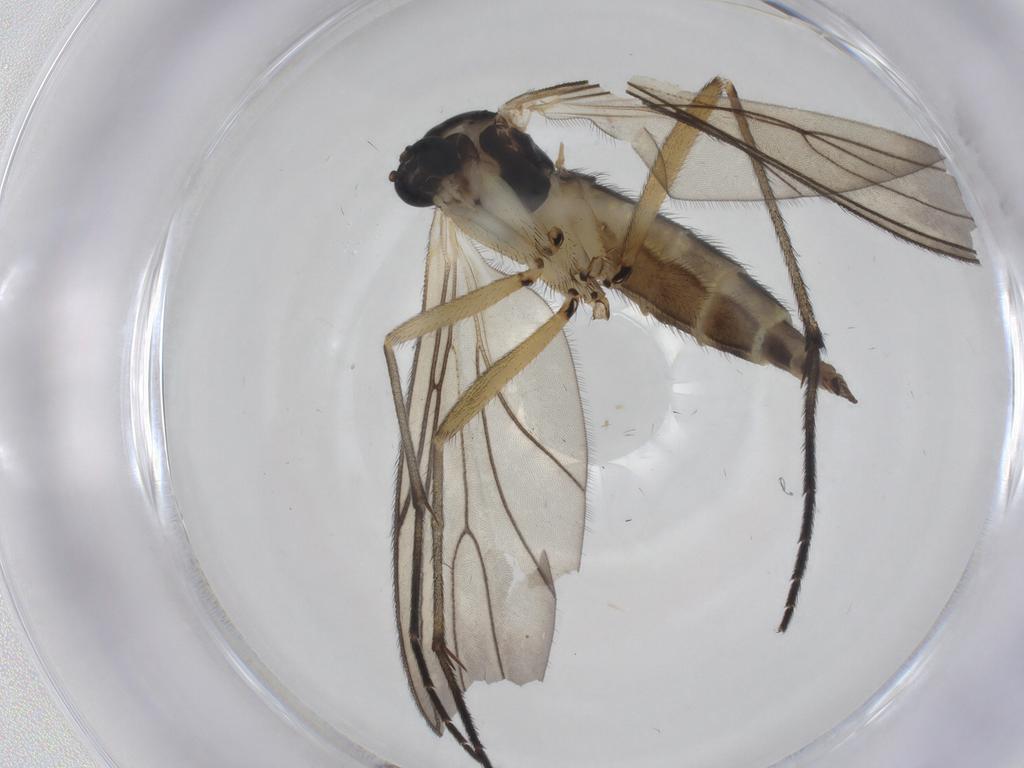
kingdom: Animalia
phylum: Arthropoda
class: Insecta
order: Diptera
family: Sciaridae
